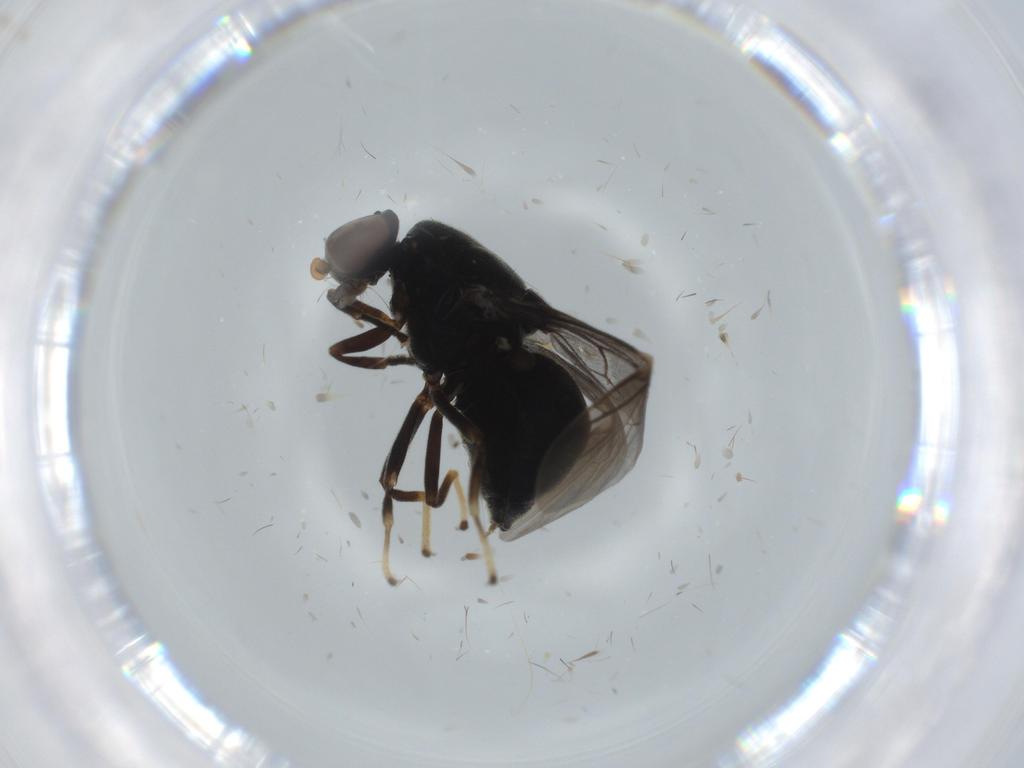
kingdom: Animalia
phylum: Arthropoda
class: Insecta
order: Diptera
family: Stratiomyidae
